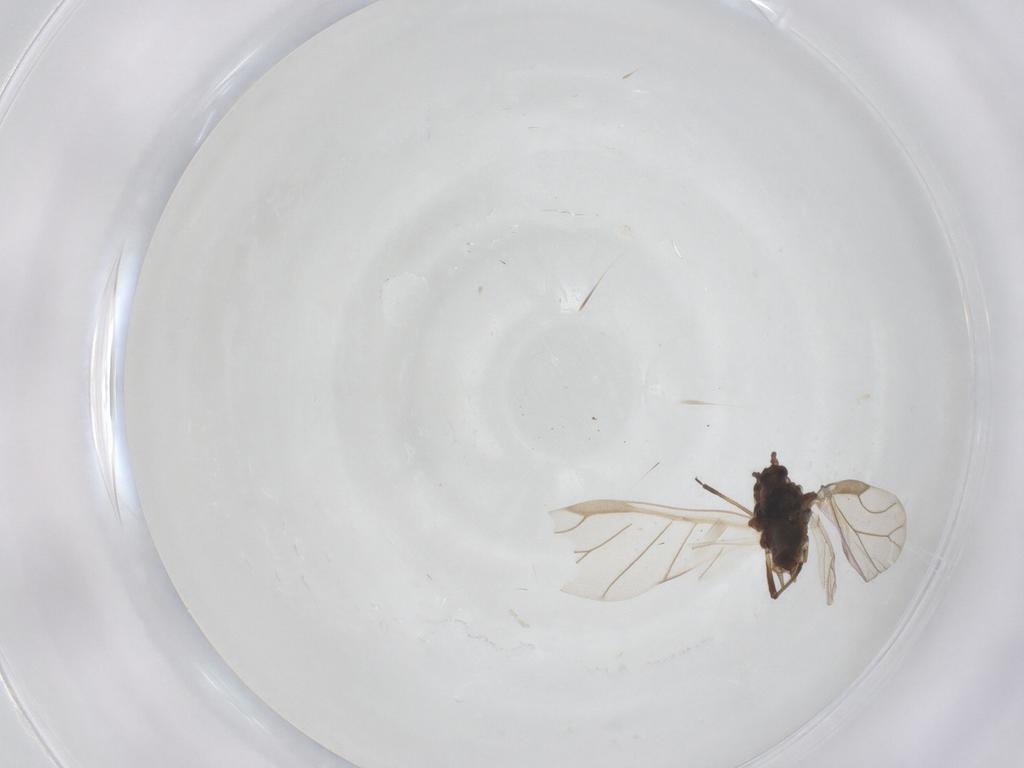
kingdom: Animalia
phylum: Arthropoda
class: Insecta
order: Hemiptera
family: Aphididae
